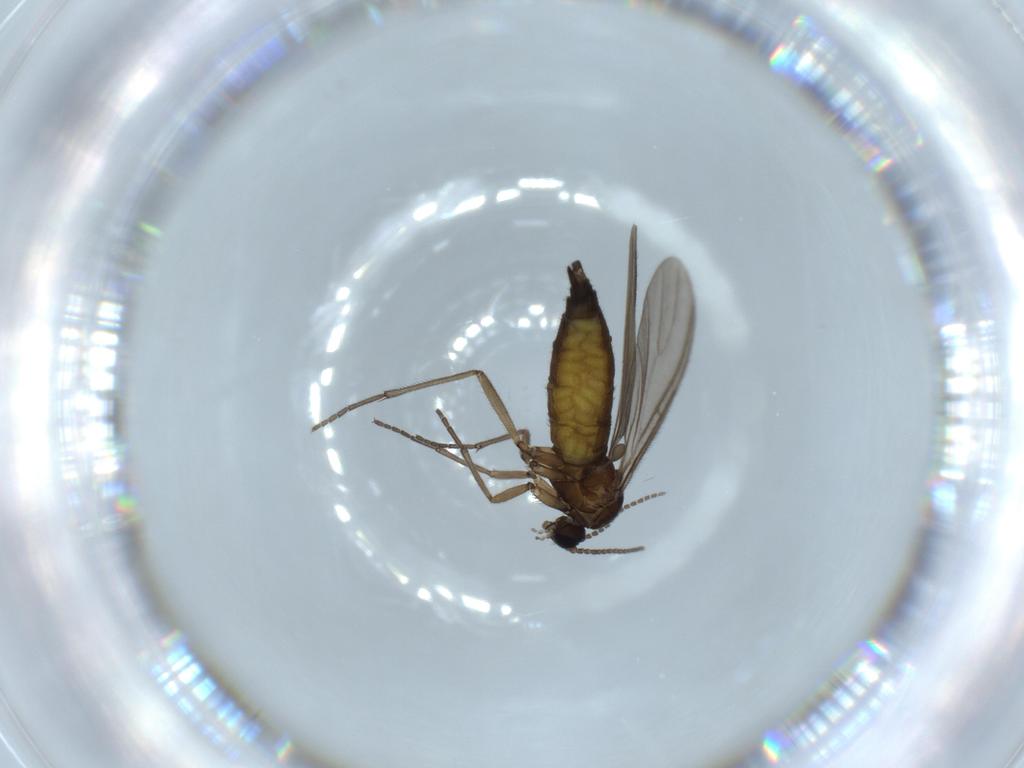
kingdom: Animalia
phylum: Arthropoda
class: Insecta
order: Diptera
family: Sciaridae
